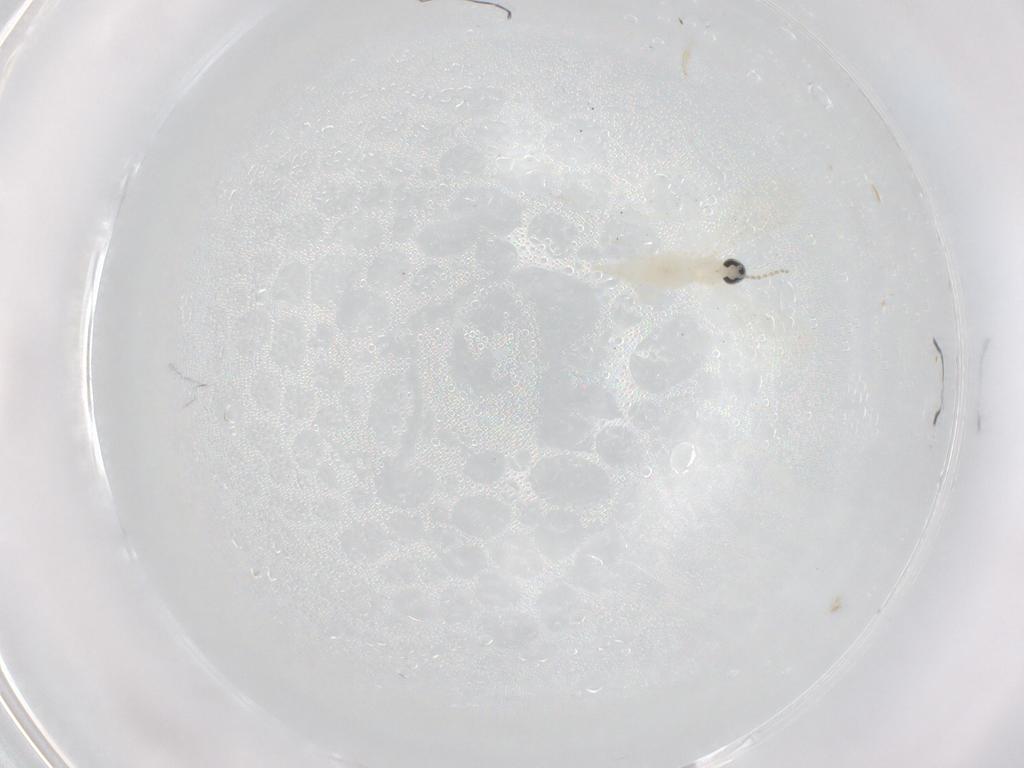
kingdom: Animalia
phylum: Arthropoda
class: Insecta
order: Diptera
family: Cecidomyiidae
